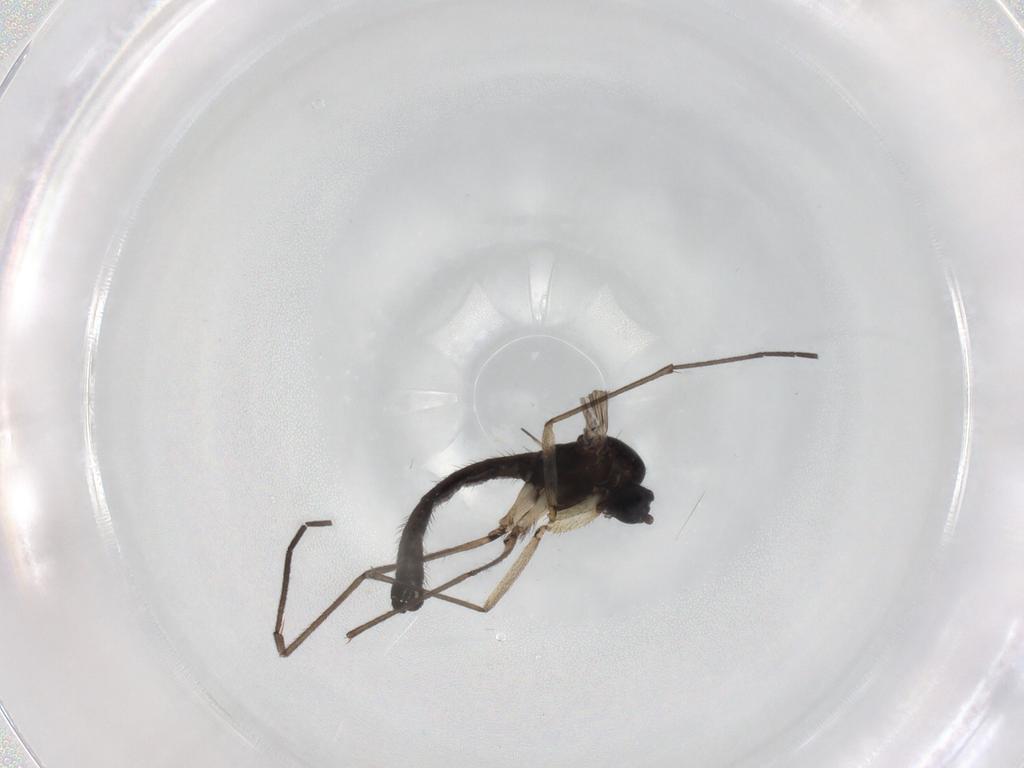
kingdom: Animalia
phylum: Arthropoda
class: Insecta
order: Diptera
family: Sciaridae
